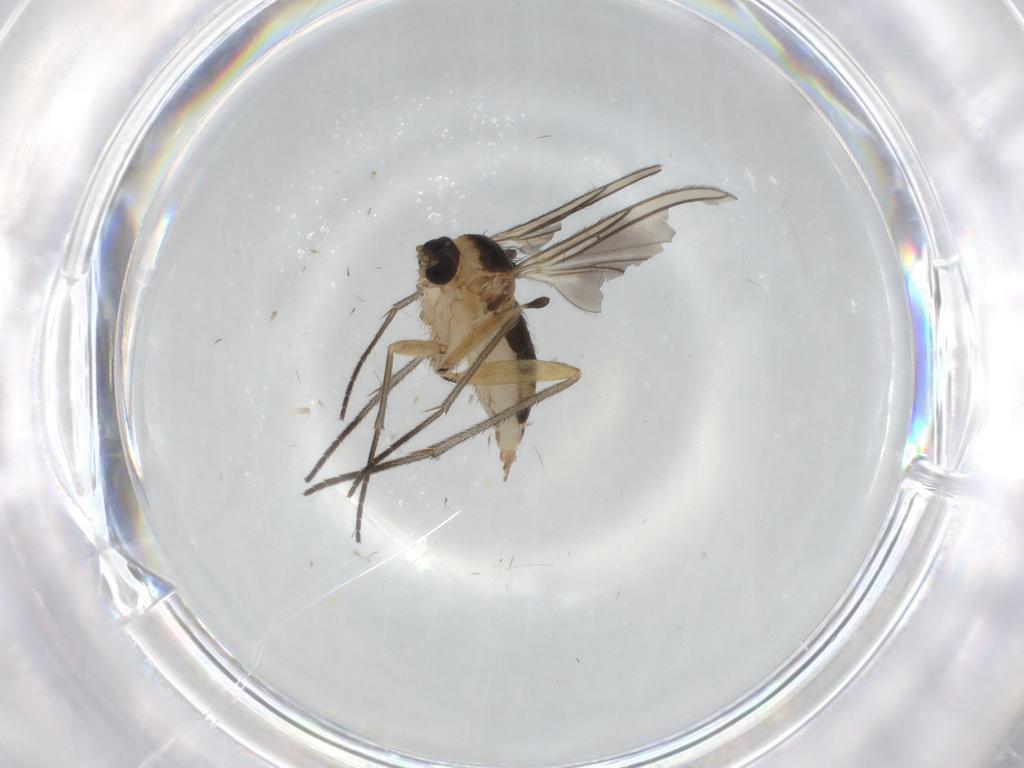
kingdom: Animalia
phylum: Arthropoda
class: Insecta
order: Diptera
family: Sciaridae
